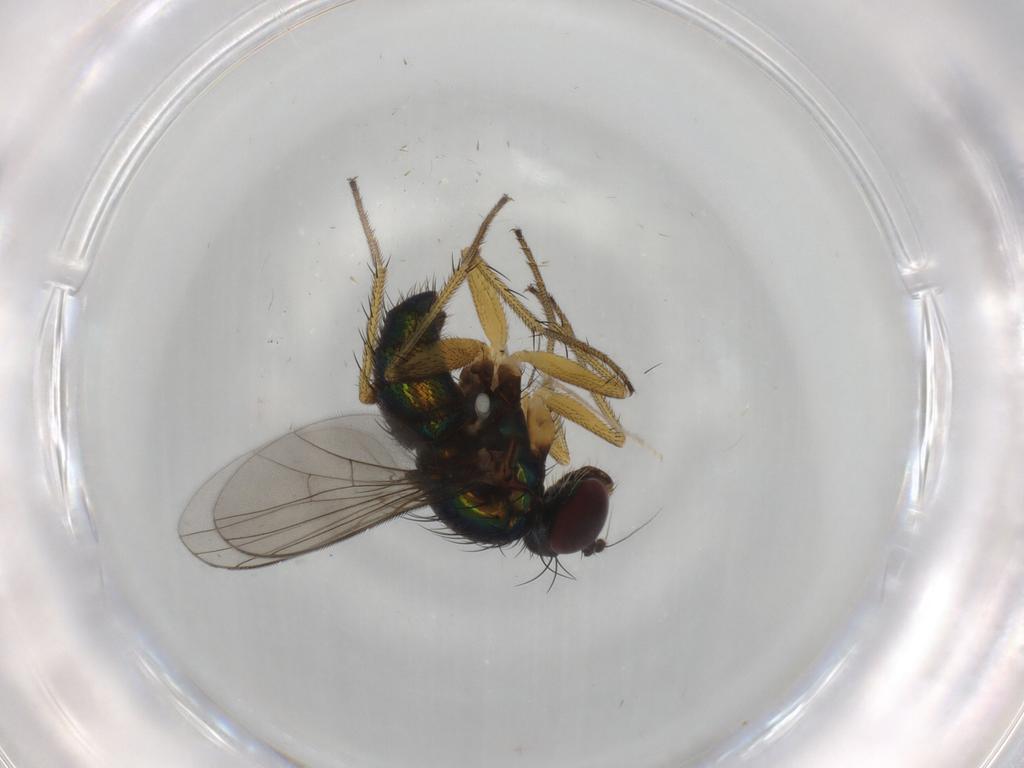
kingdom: Animalia
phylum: Arthropoda
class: Insecta
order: Diptera
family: Dolichopodidae
